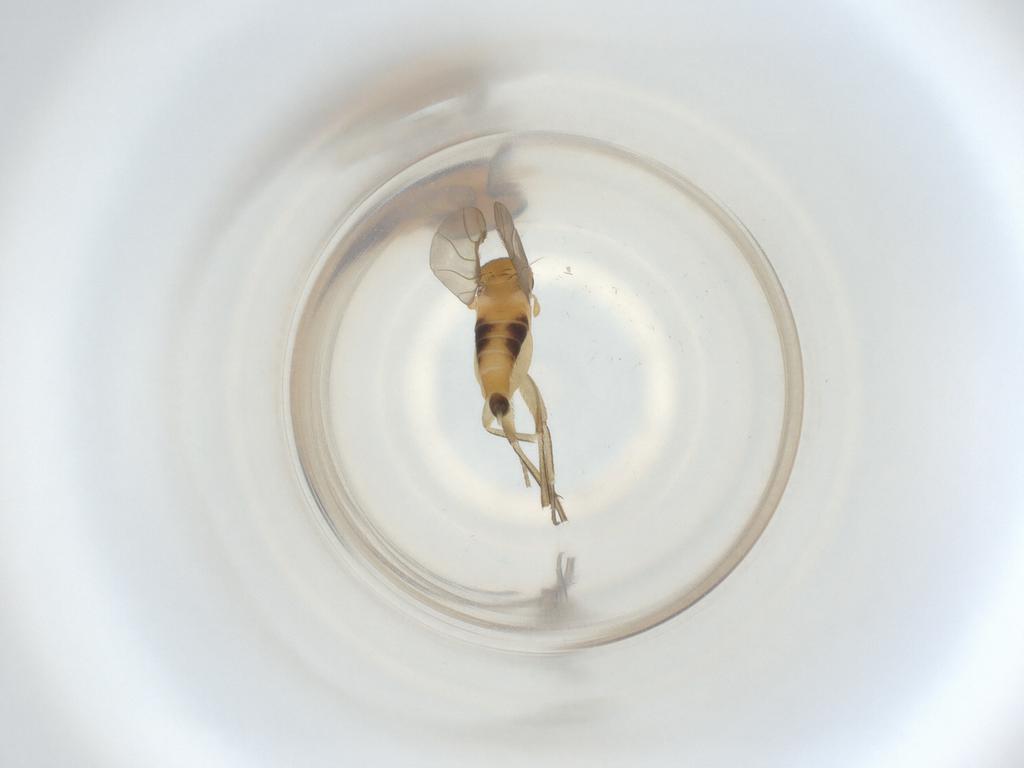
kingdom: Animalia
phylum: Arthropoda
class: Insecta
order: Diptera
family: Phoridae
